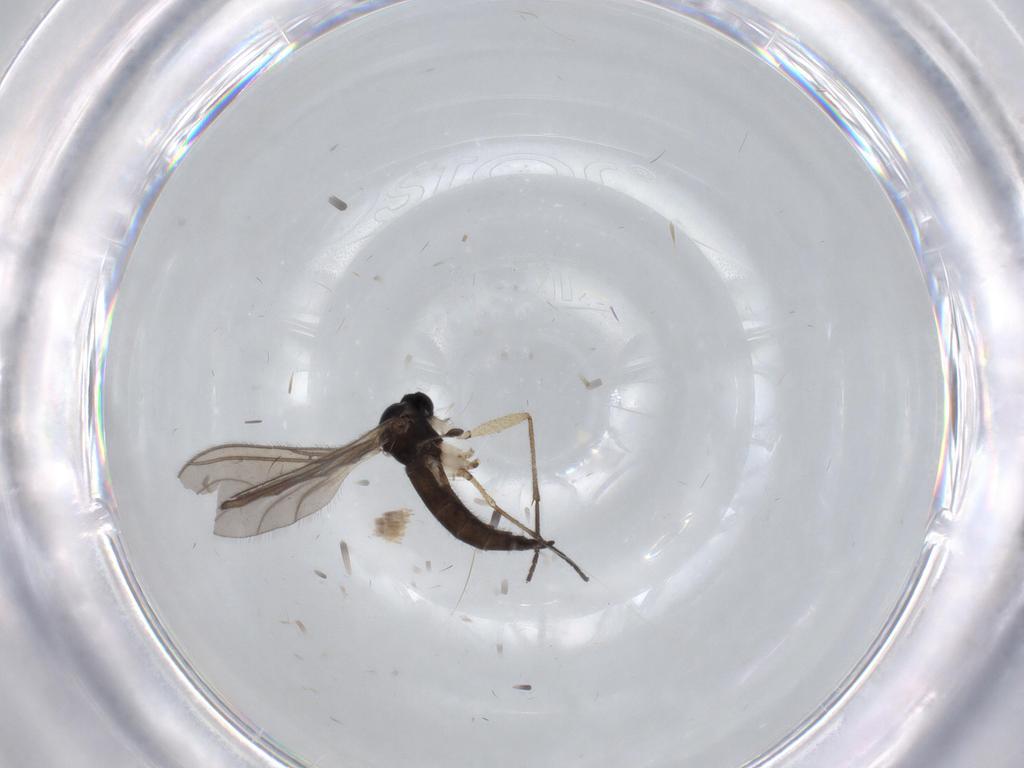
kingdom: Animalia
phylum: Arthropoda
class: Insecta
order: Diptera
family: Sciaridae
